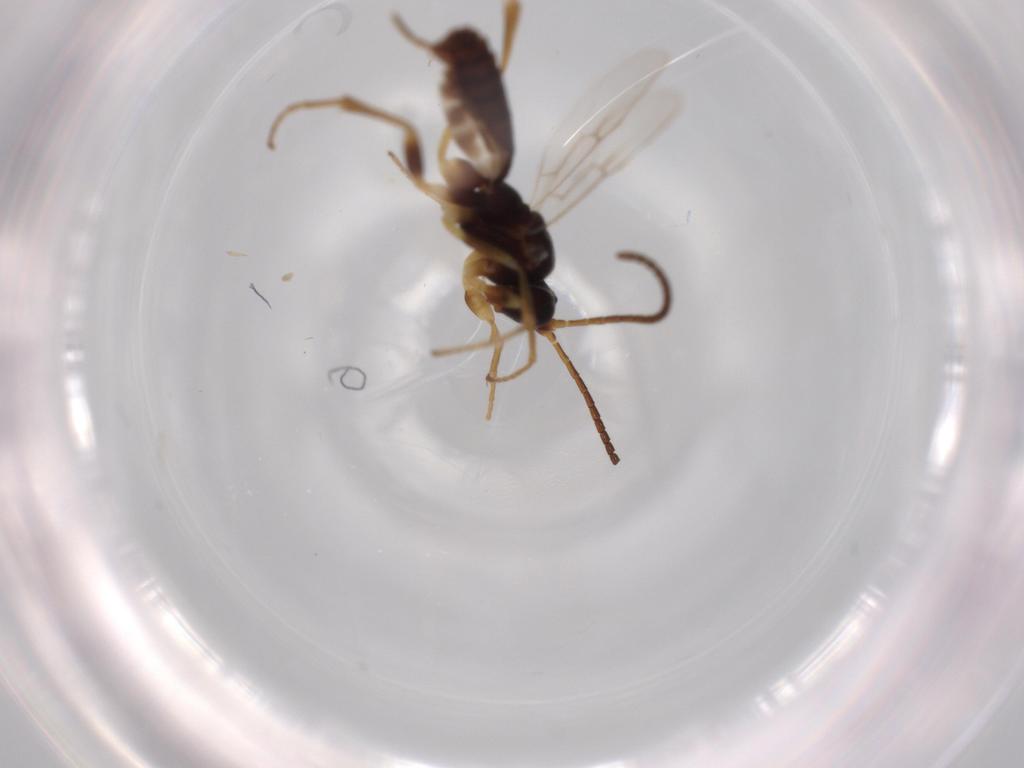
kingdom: Animalia
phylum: Arthropoda
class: Insecta
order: Hymenoptera
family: Ichneumonidae
